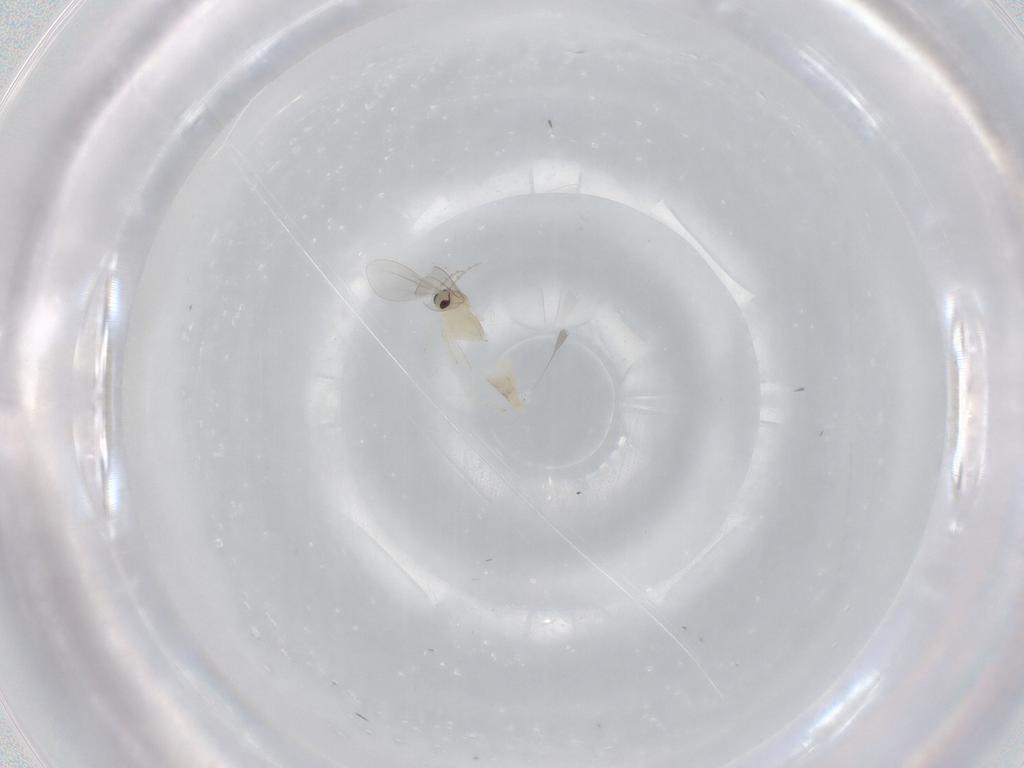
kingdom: Animalia
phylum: Arthropoda
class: Insecta
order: Diptera
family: Cecidomyiidae
